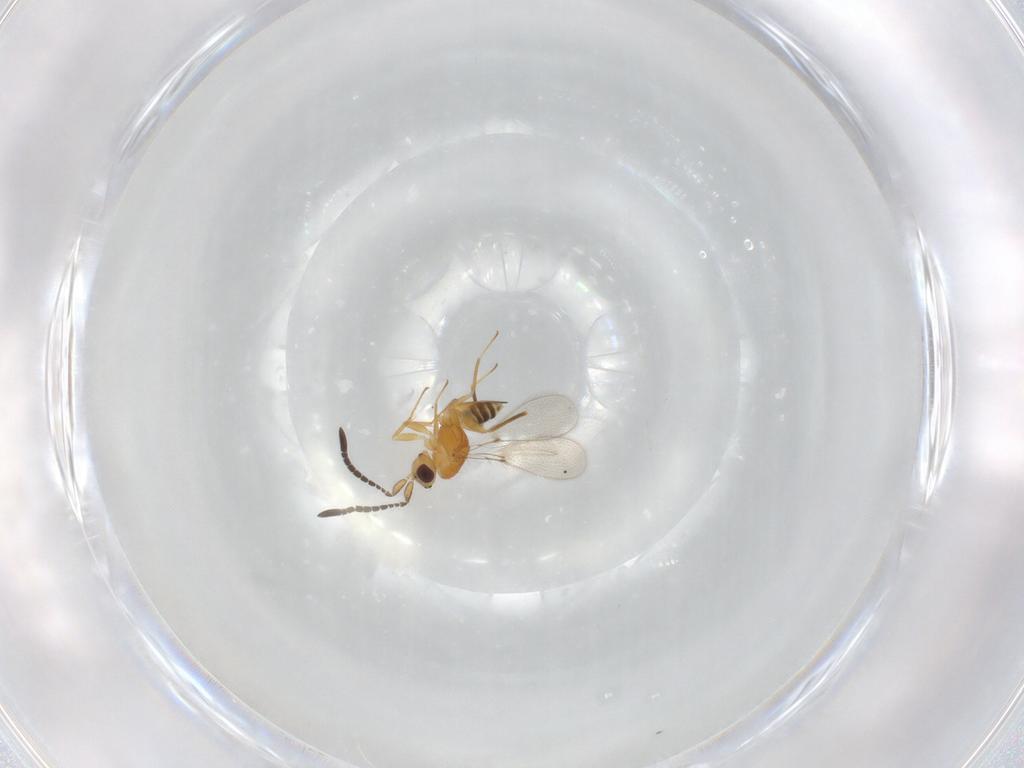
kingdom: Animalia
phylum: Arthropoda
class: Insecta
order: Hymenoptera
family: Mymaridae
